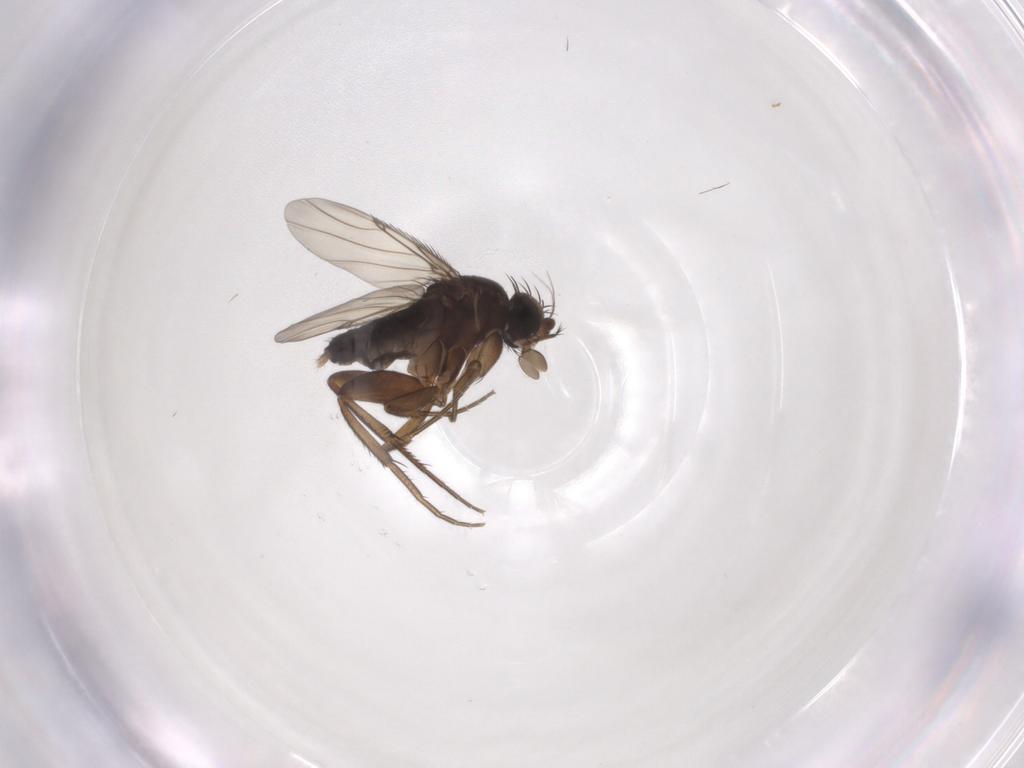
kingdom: Animalia
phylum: Arthropoda
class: Insecta
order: Diptera
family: Phoridae
